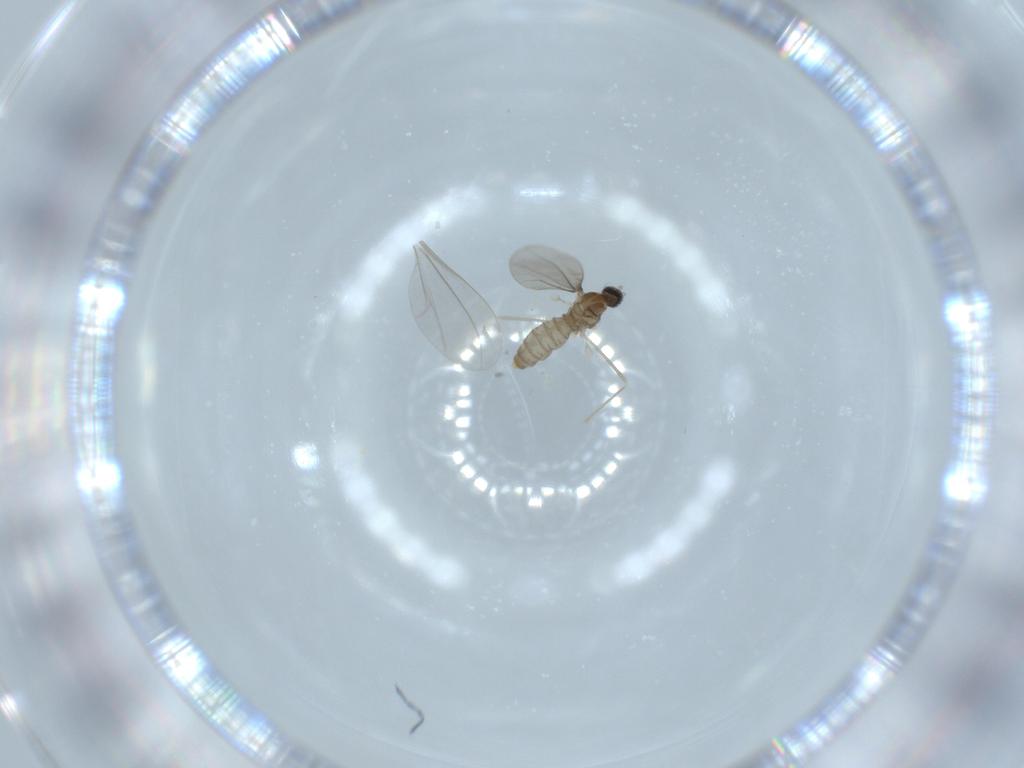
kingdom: Animalia
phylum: Arthropoda
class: Insecta
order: Diptera
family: Cecidomyiidae
